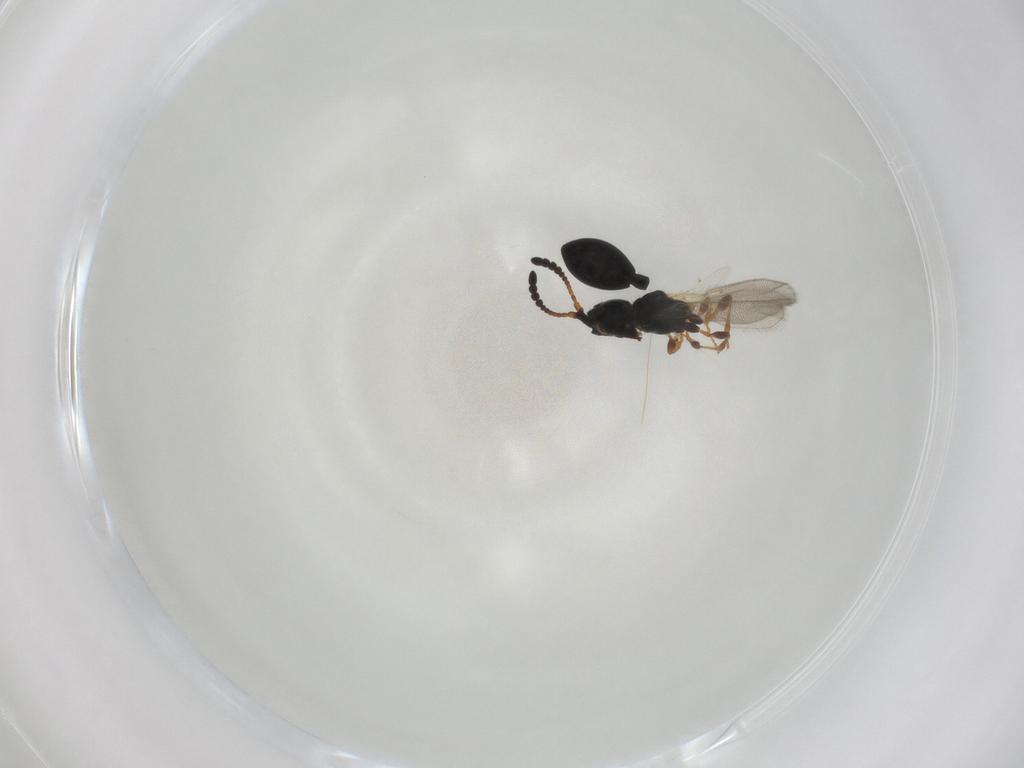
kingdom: Animalia
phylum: Arthropoda
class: Insecta
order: Hymenoptera
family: Diapriidae
